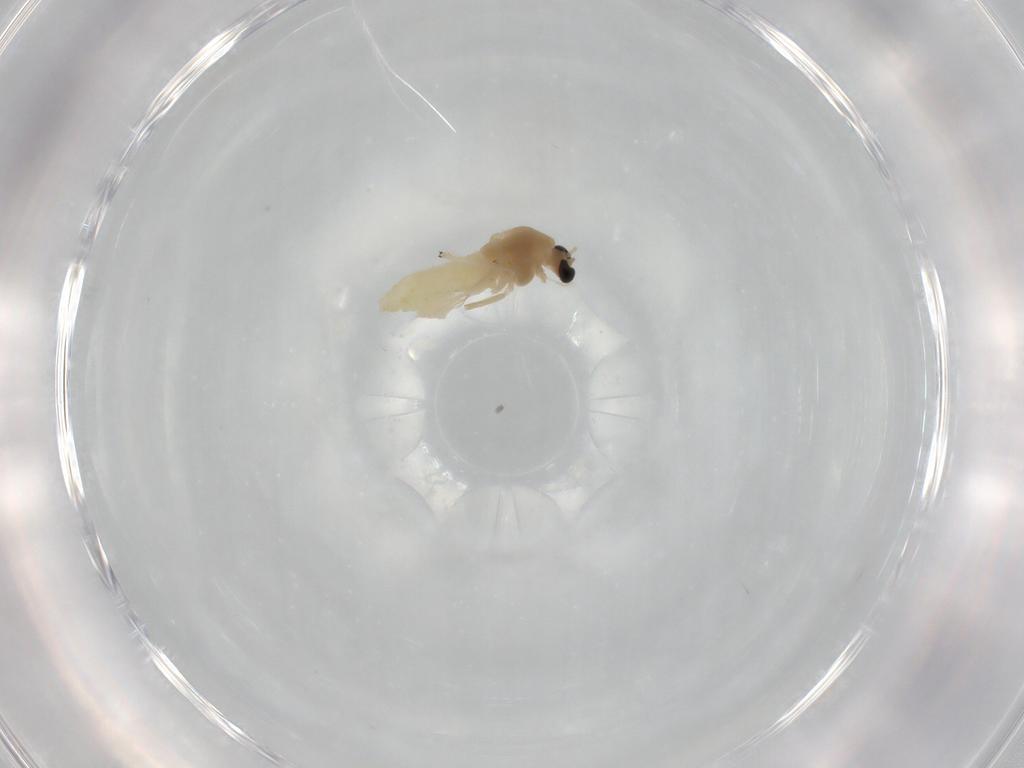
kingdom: Animalia
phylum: Arthropoda
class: Insecta
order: Diptera
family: Chironomidae
